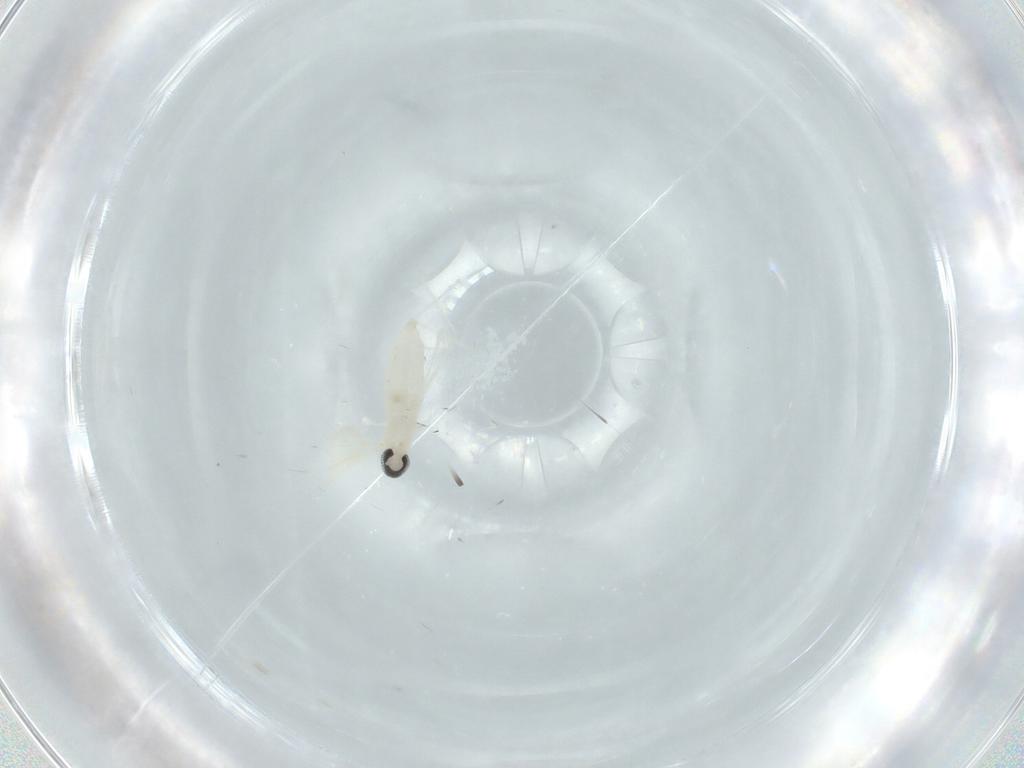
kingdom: Animalia
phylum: Arthropoda
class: Insecta
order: Diptera
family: Cecidomyiidae
